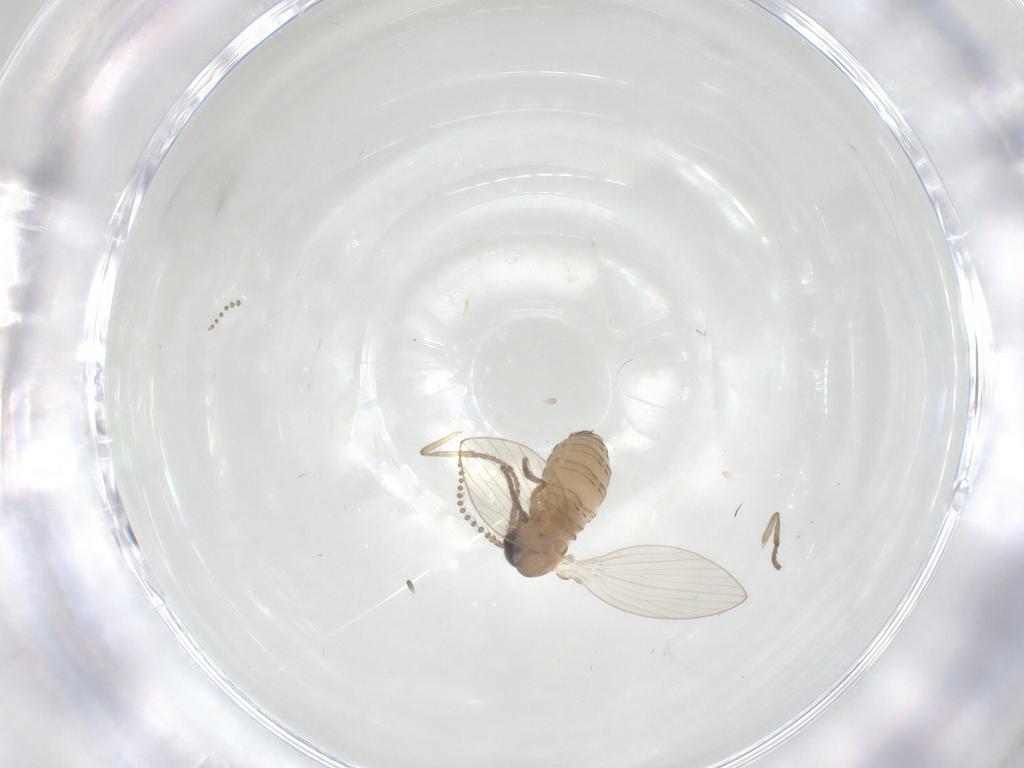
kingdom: Animalia
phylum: Arthropoda
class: Insecta
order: Diptera
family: Psychodidae
